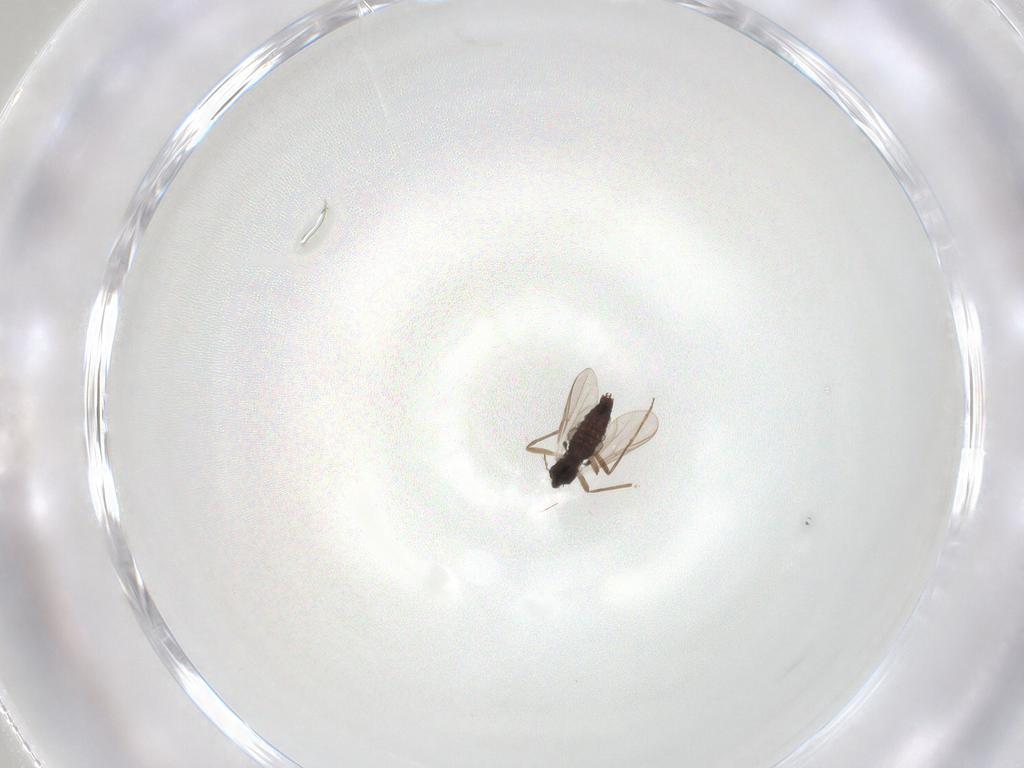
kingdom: Animalia
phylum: Arthropoda
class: Insecta
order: Diptera
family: Chironomidae
